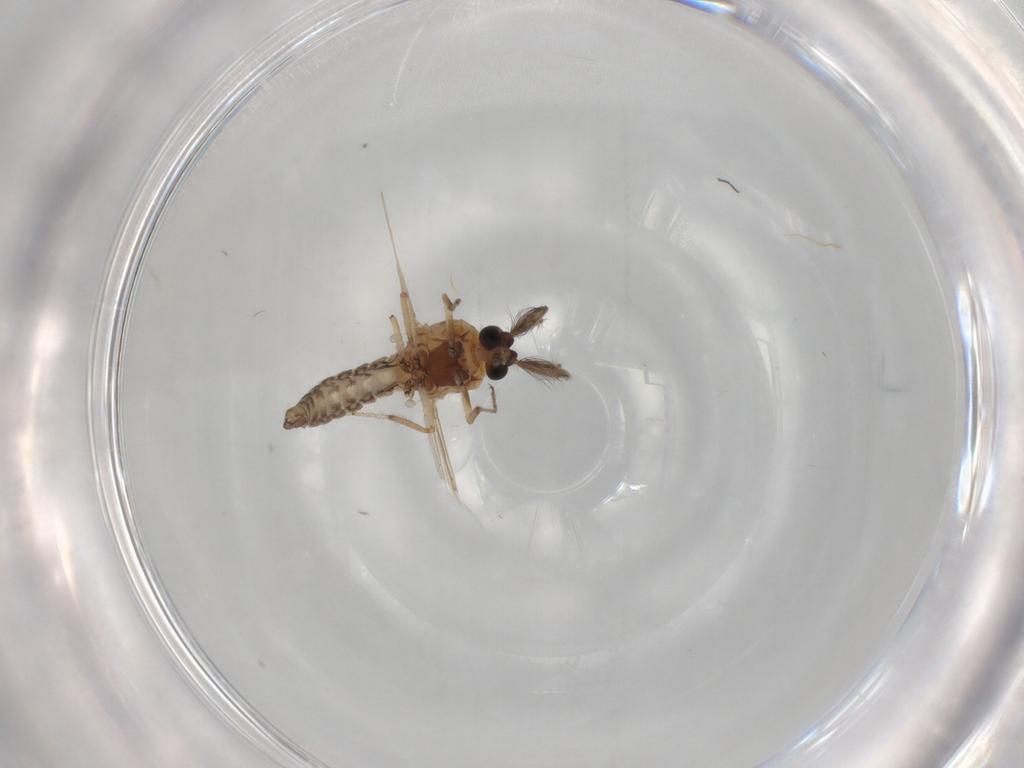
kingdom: Animalia
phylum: Arthropoda
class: Insecta
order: Diptera
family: Ceratopogonidae
